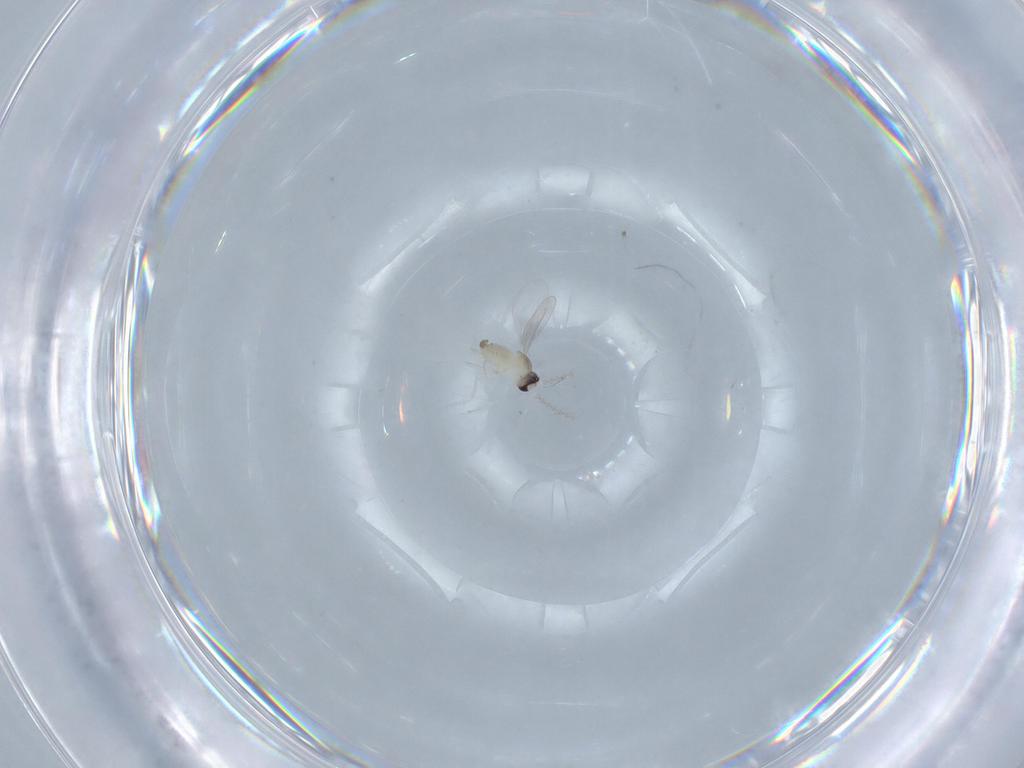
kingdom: Animalia
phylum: Arthropoda
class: Insecta
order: Diptera
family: Cecidomyiidae
